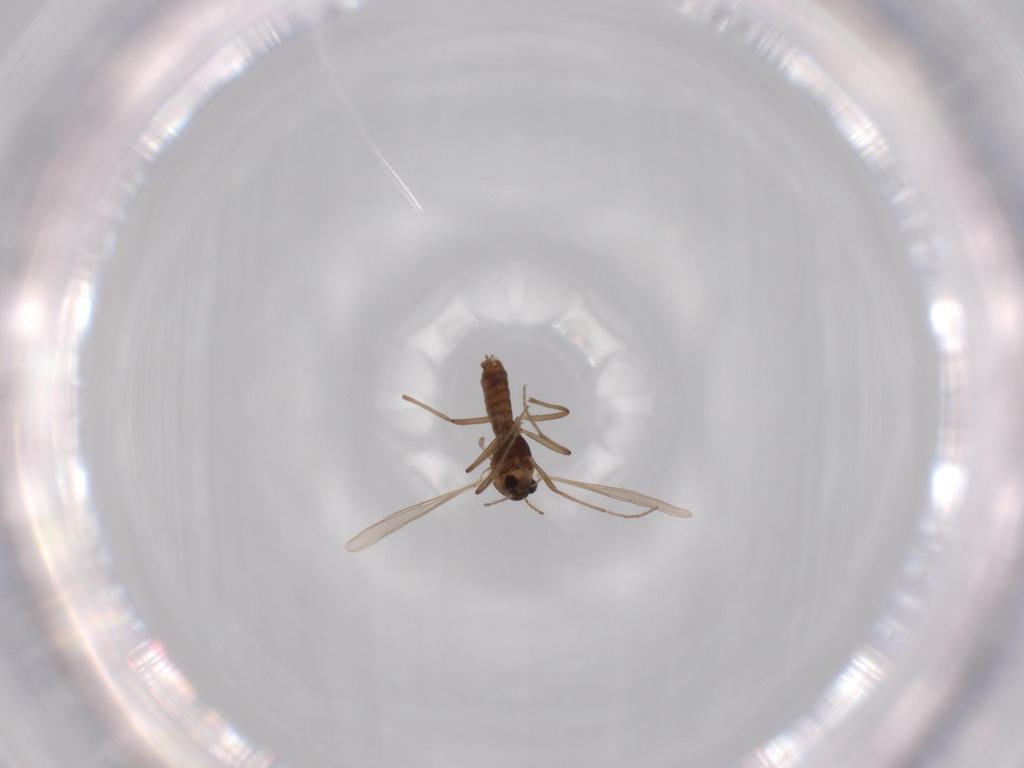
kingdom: Animalia
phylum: Arthropoda
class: Insecta
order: Diptera
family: Chironomidae
